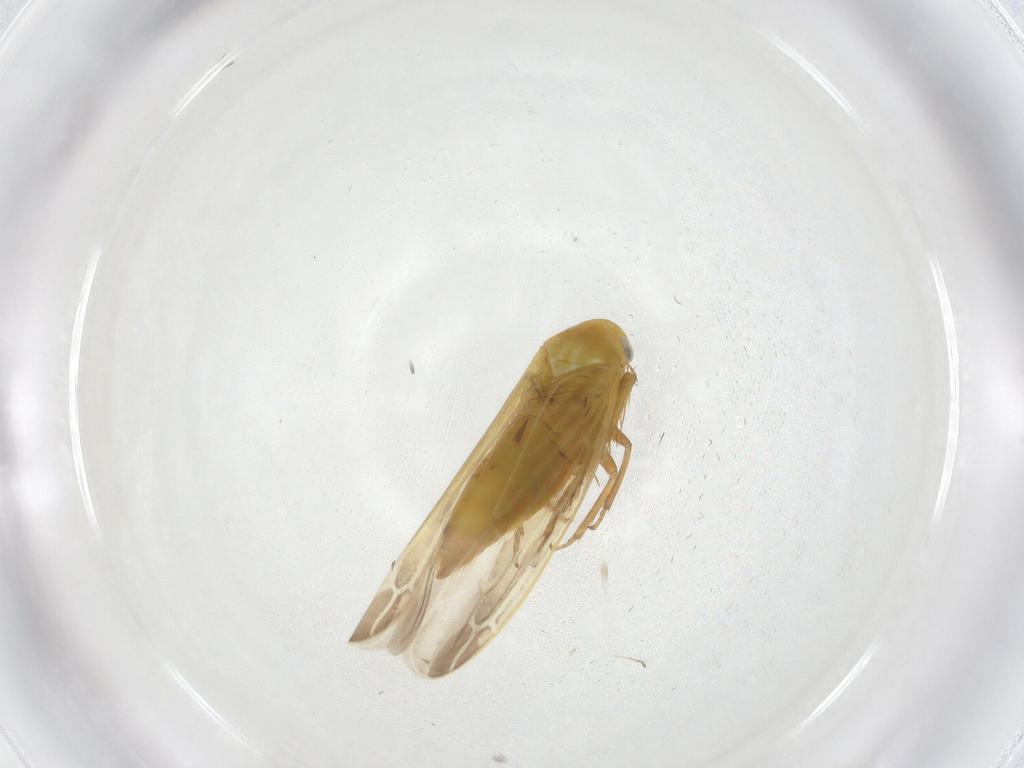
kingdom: Animalia
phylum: Arthropoda
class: Insecta
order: Hemiptera
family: Cicadellidae
